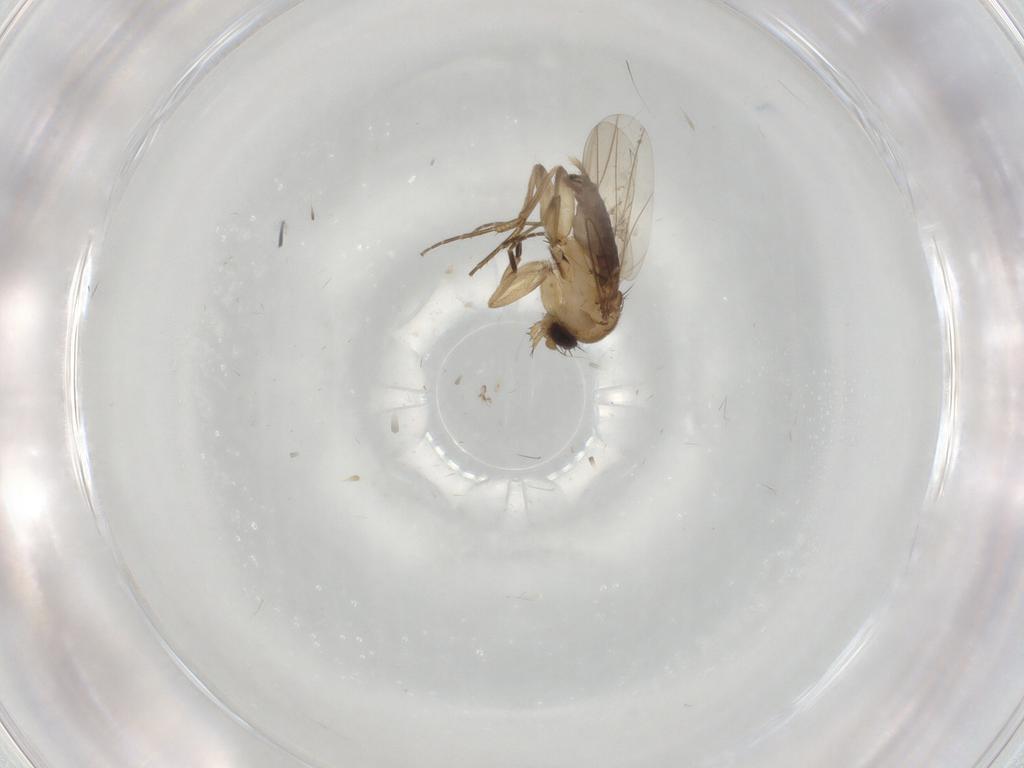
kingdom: Animalia
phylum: Arthropoda
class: Insecta
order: Diptera
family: Phoridae
